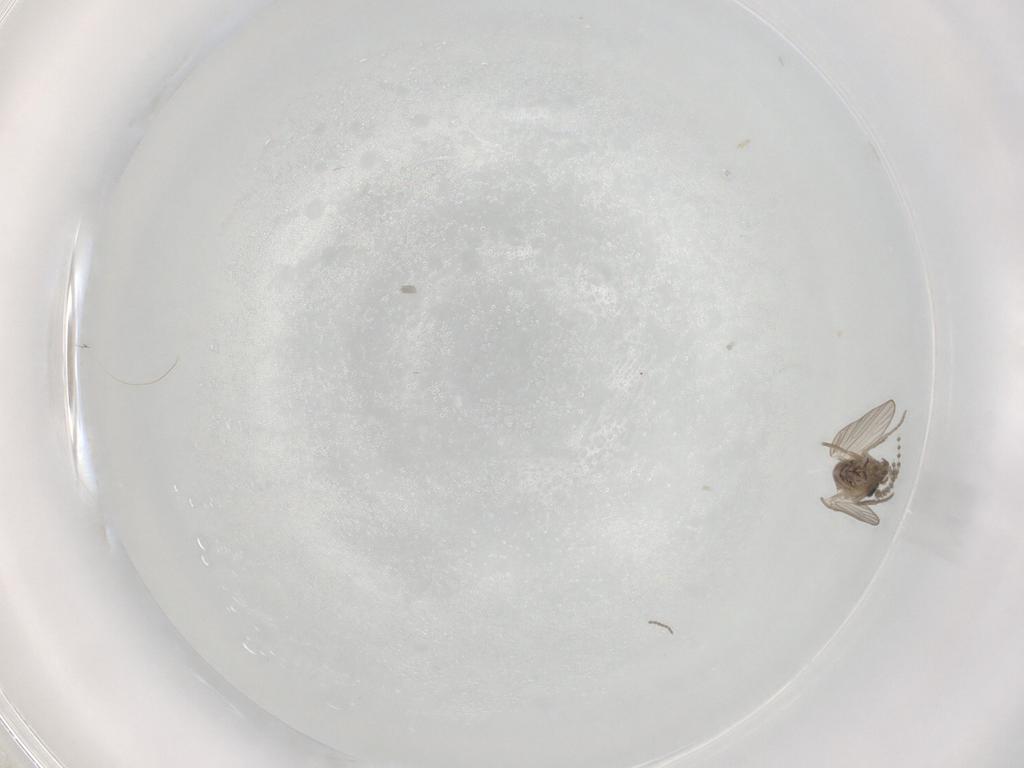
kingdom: Animalia
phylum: Arthropoda
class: Insecta
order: Diptera
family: Psychodidae
